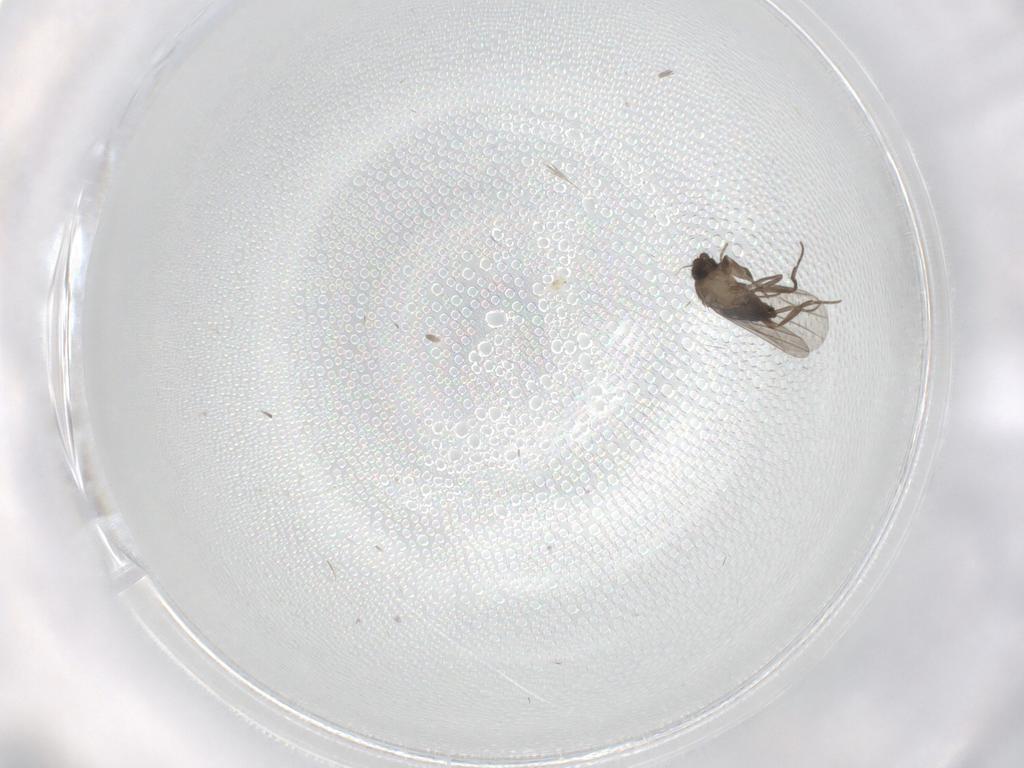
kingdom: Animalia
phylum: Arthropoda
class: Insecta
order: Diptera
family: Phoridae
